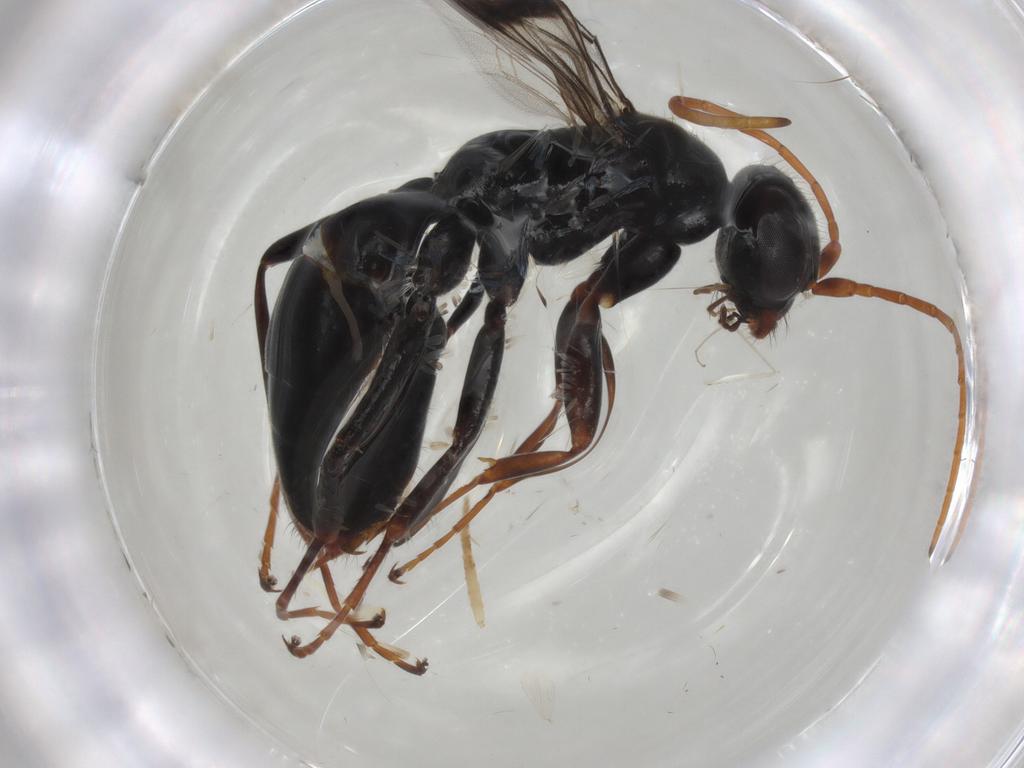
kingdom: Animalia
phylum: Arthropoda
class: Insecta
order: Hymenoptera
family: Pompilidae
